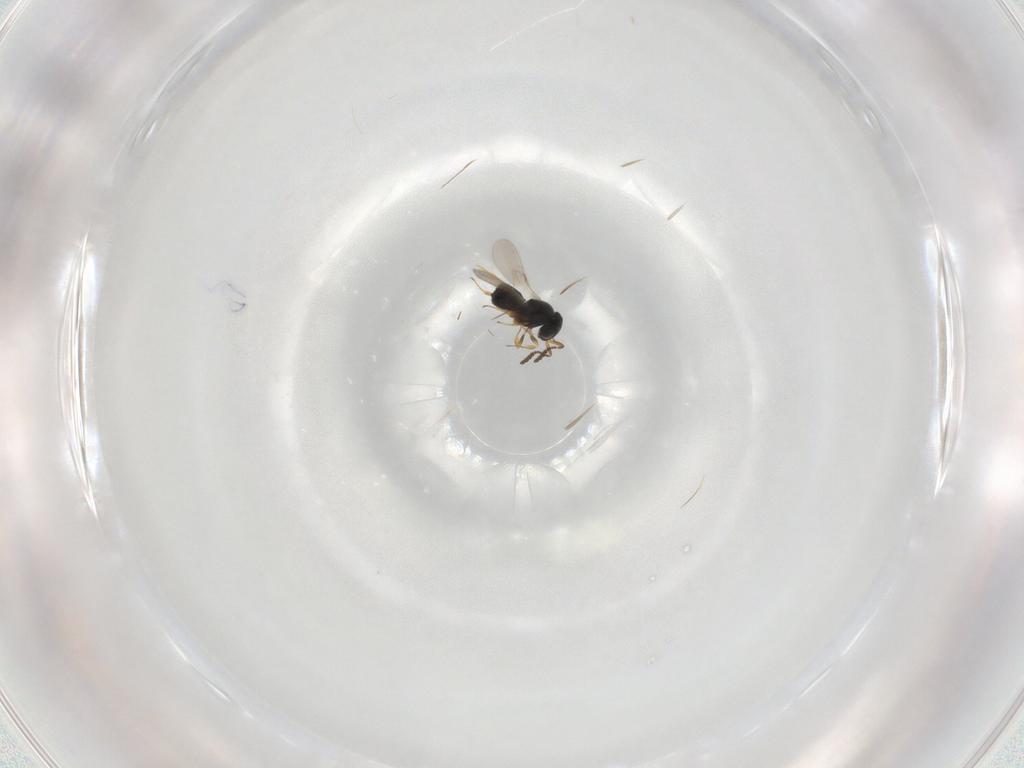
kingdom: Animalia
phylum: Arthropoda
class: Insecta
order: Hymenoptera
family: Scelionidae
